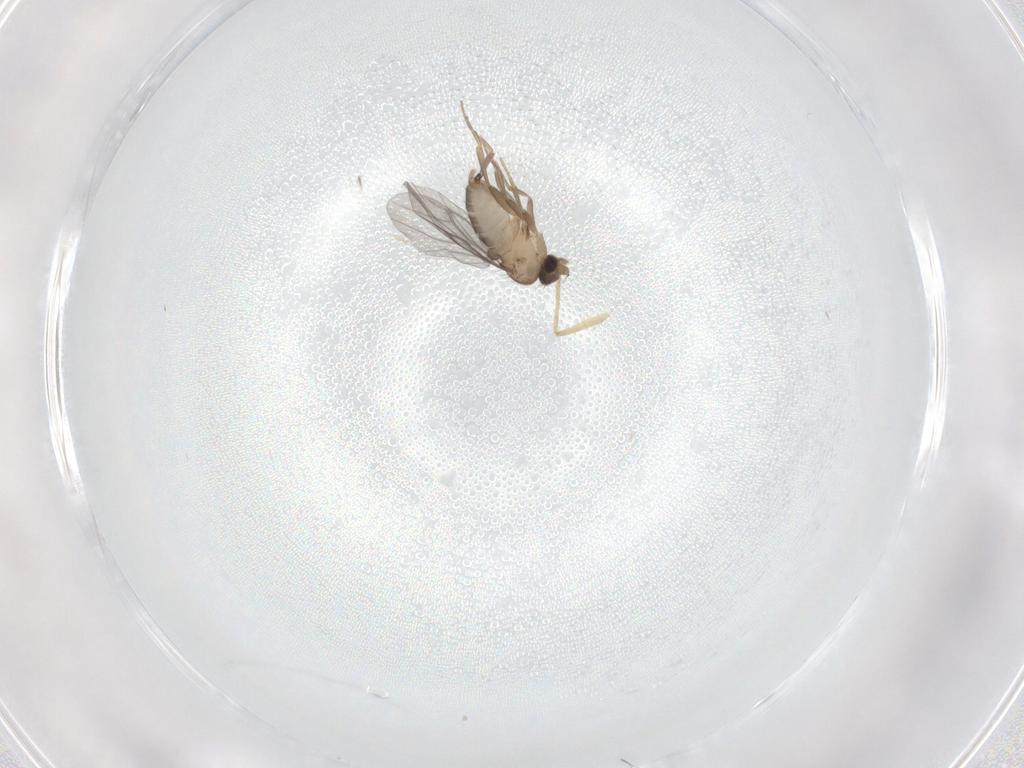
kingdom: Animalia
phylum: Arthropoda
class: Insecta
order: Diptera
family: Chironomidae
